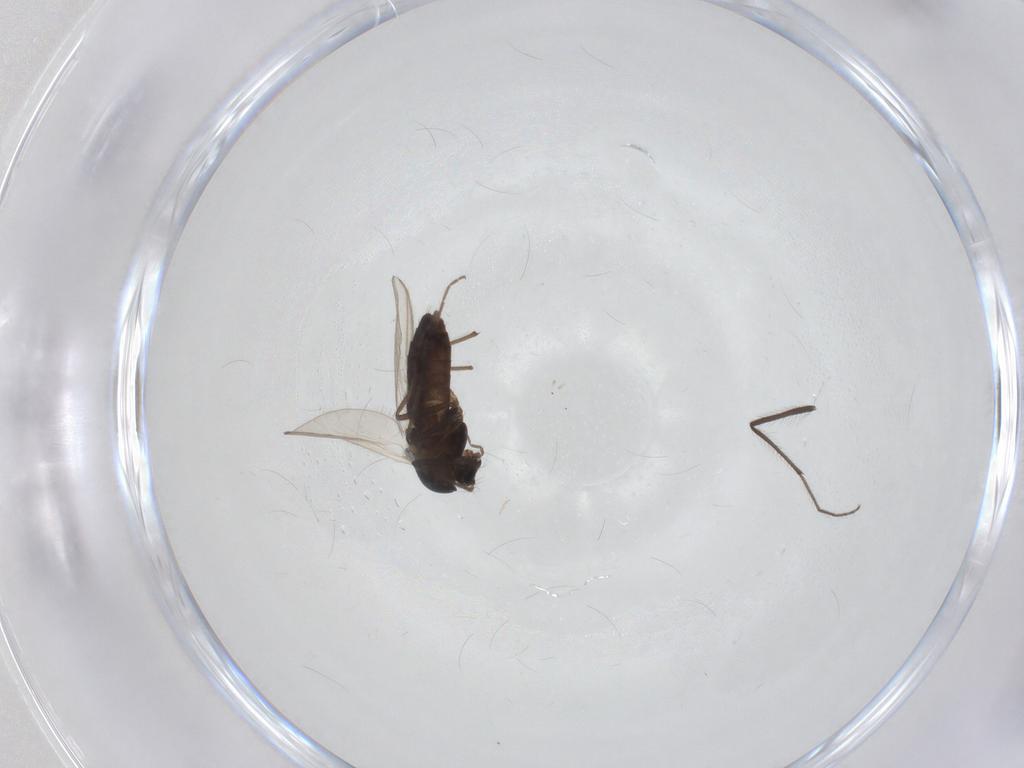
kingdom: Animalia
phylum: Arthropoda
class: Insecta
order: Diptera
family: Chironomidae
